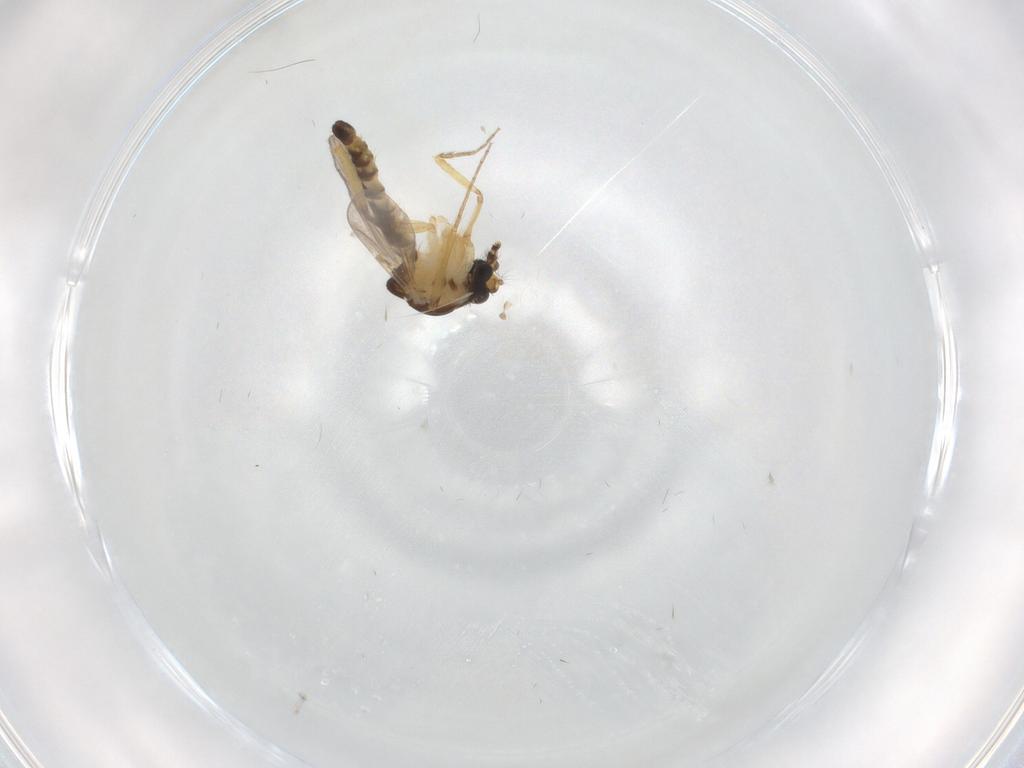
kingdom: Animalia
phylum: Arthropoda
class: Insecta
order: Diptera
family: Ceratopogonidae
